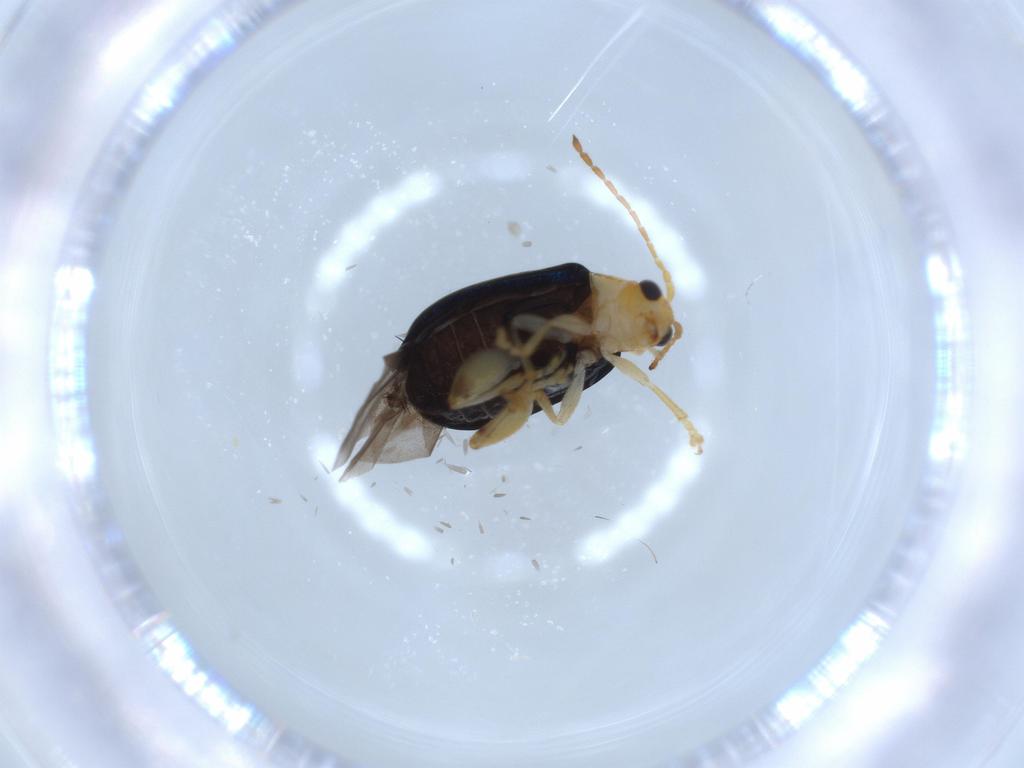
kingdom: Animalia
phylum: Arthropoda
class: Insecta
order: Coleoptera
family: Chrysomelidae
